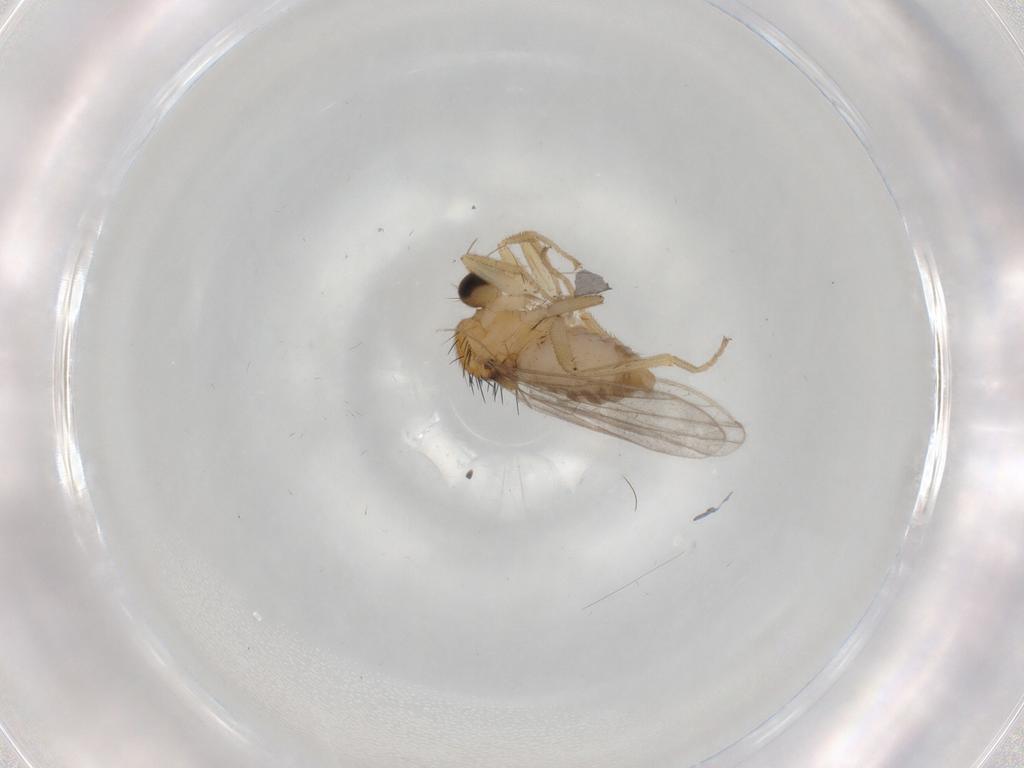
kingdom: Animalia
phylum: Arthropoda
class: Insecta
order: Diptera
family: Hybotidae
